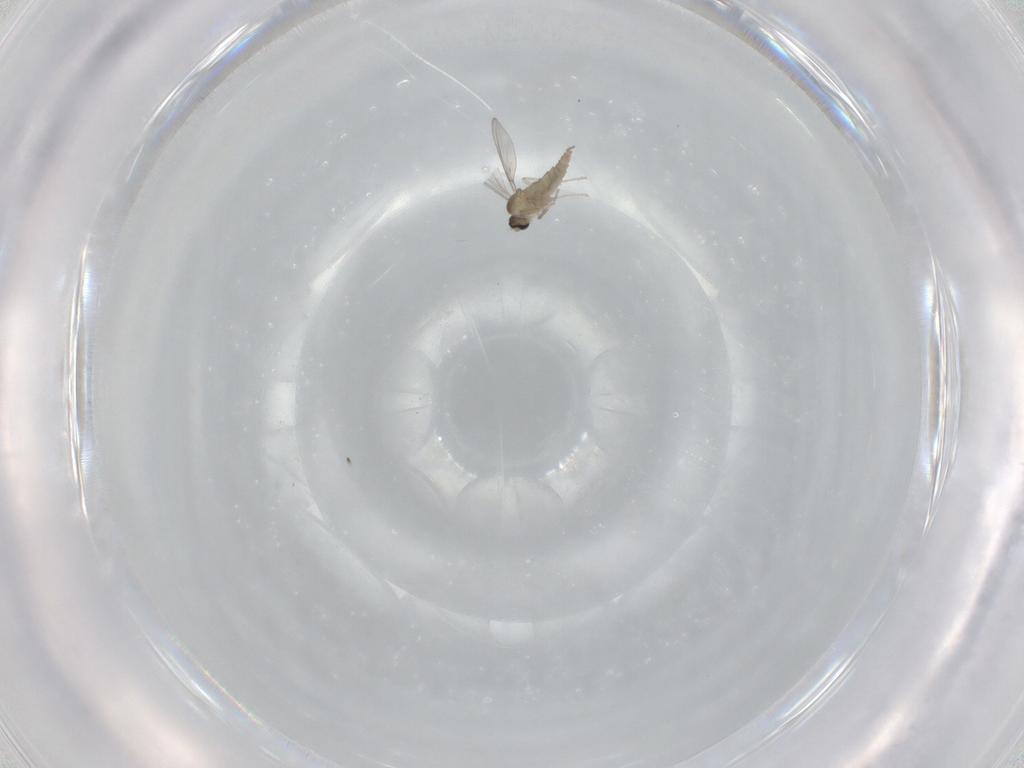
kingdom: Animalia
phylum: Arthropoda
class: Insecta
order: Diptera
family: Cecidomyiidae
